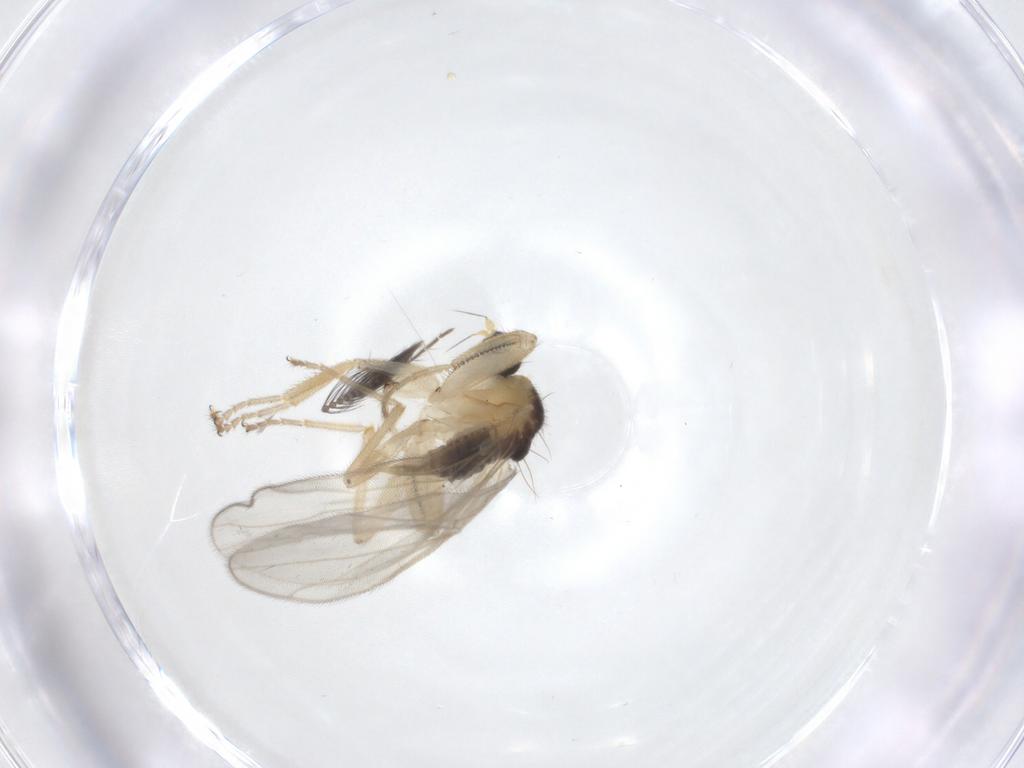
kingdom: Animalia
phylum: Arthropoda
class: Insecta
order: Diptera
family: Hybotidae
